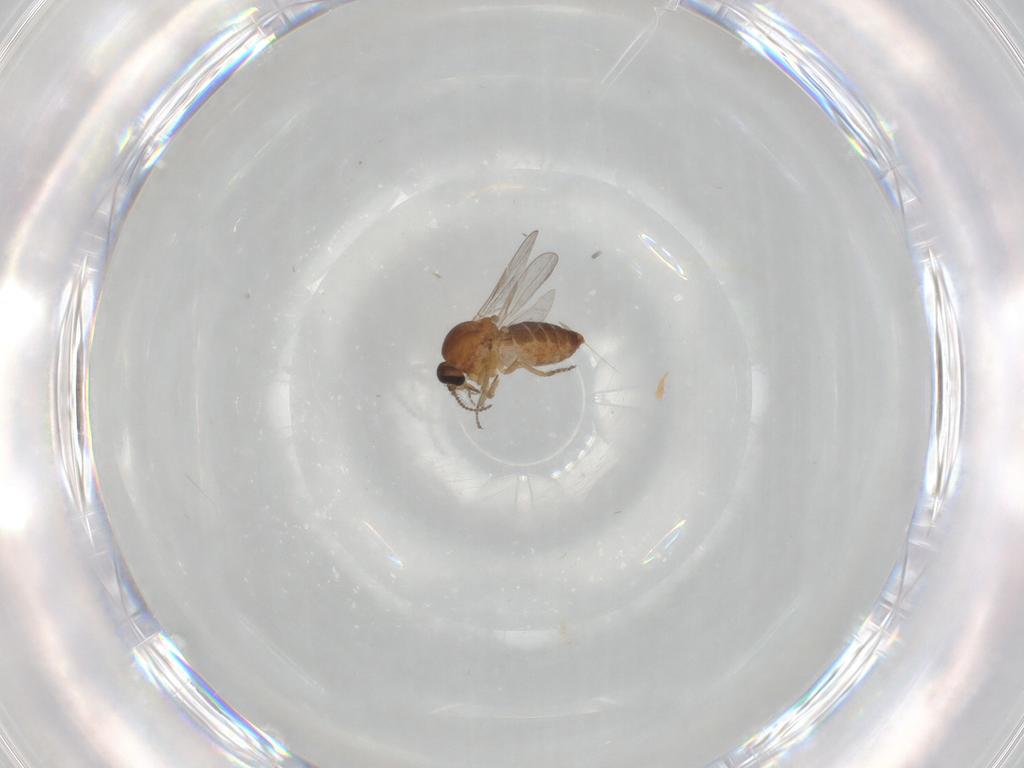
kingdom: Animalia
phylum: Arthropoda
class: Insecta
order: Diptera
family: Ceratopogonidae
